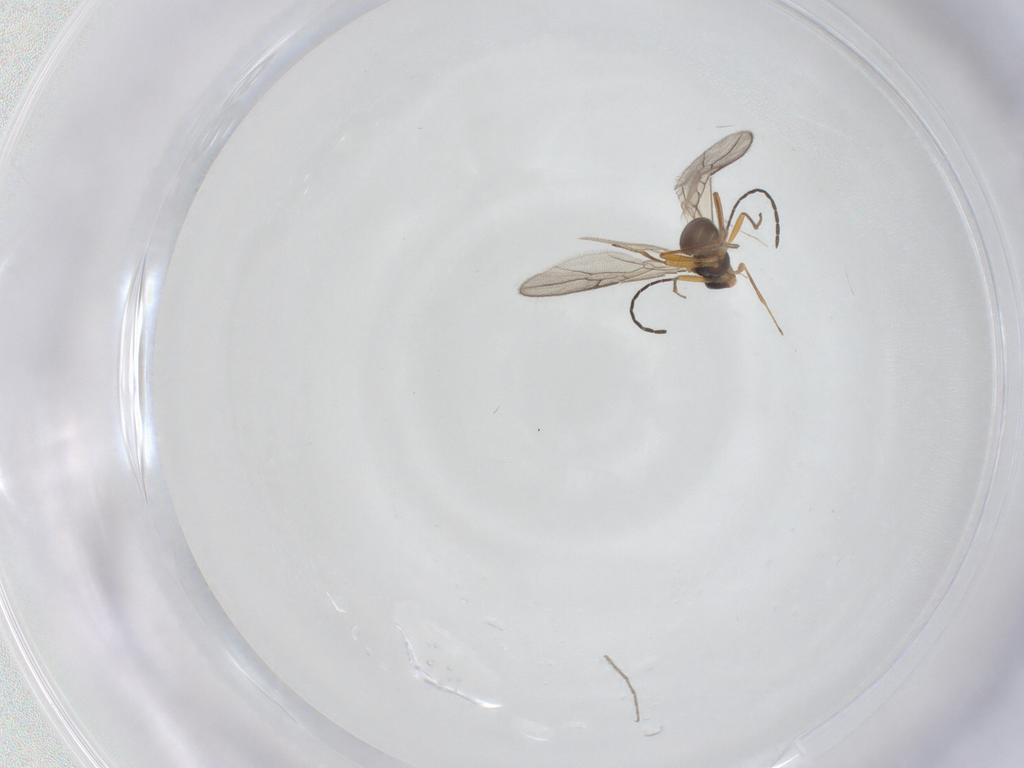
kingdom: Animalia
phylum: Arthropoda
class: Insecta
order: Hymenoptera
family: Braconidae
